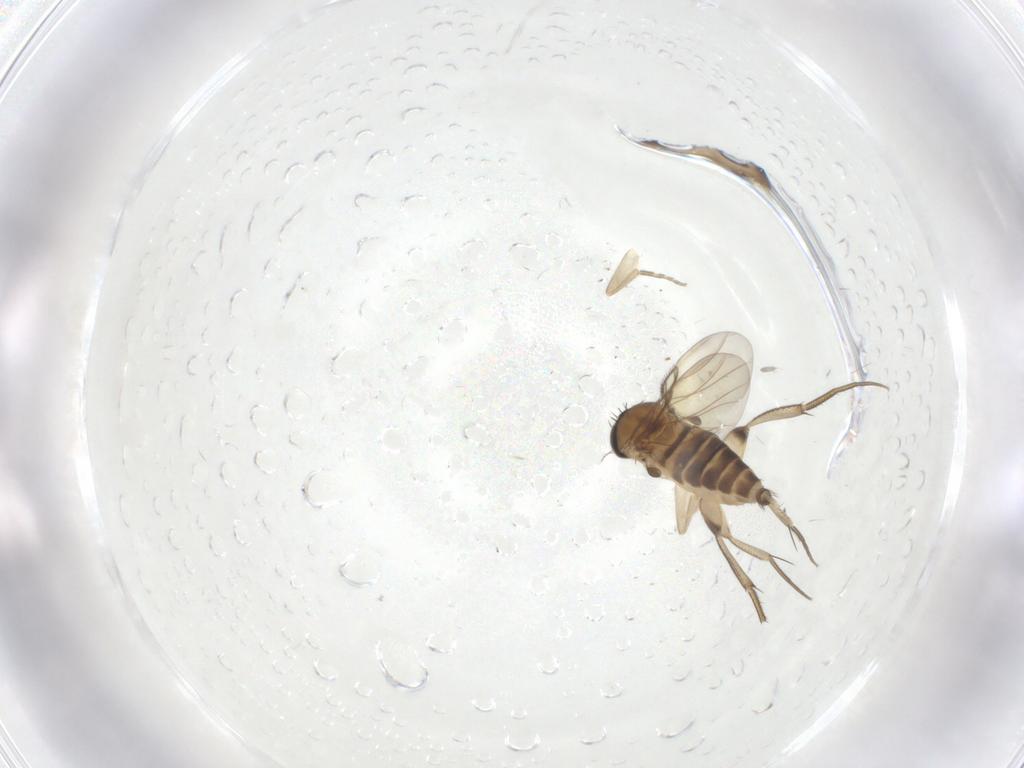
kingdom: Animalia
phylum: Arthropoda
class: Insecta
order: Diptera
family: Phoridae
